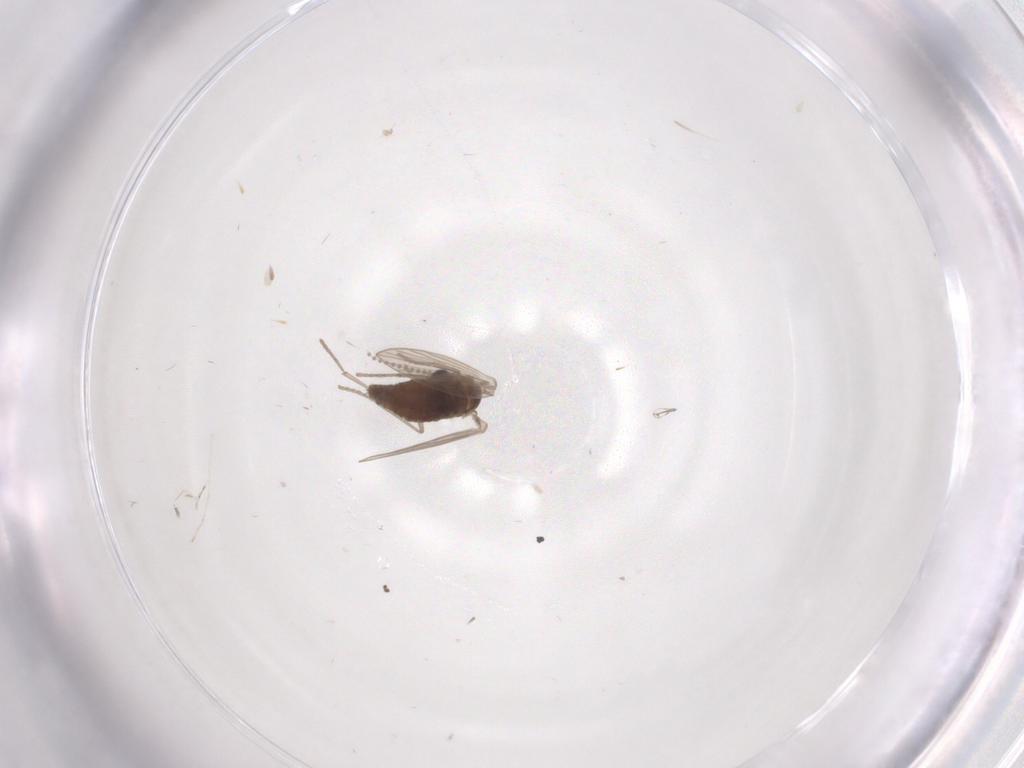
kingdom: Animalia
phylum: Arthropoda
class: Insecta
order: Diptera
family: Psychodidae
